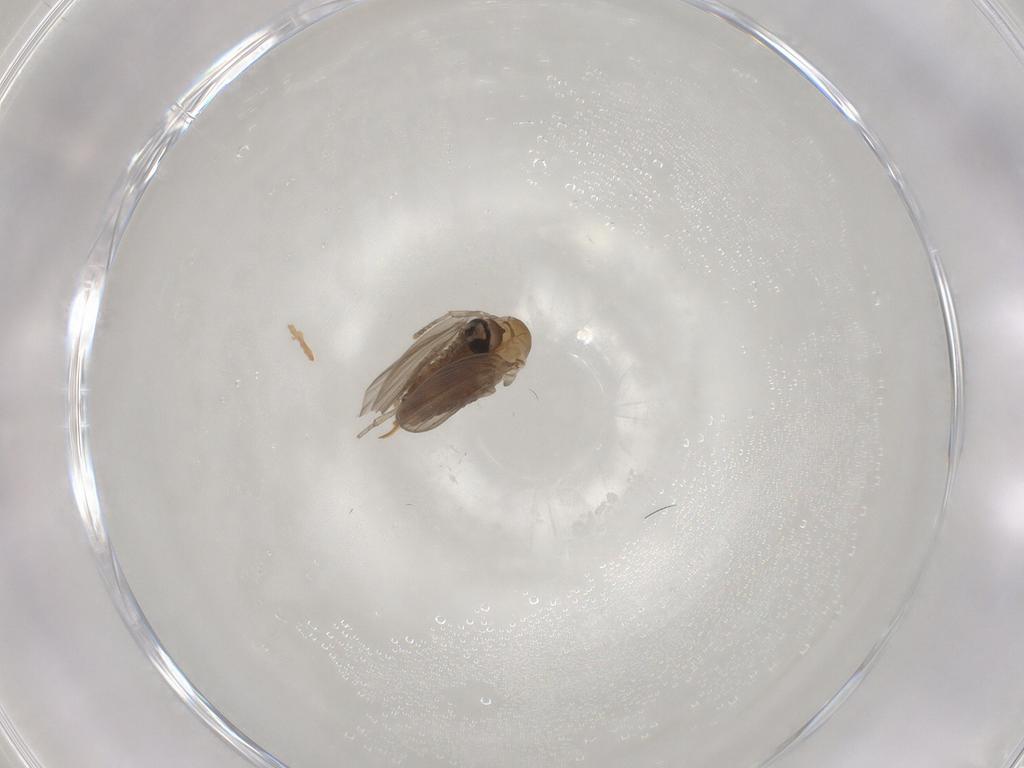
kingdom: Animalia
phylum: Arthropoda
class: Insecta
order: Diptera
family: Psychodidae
